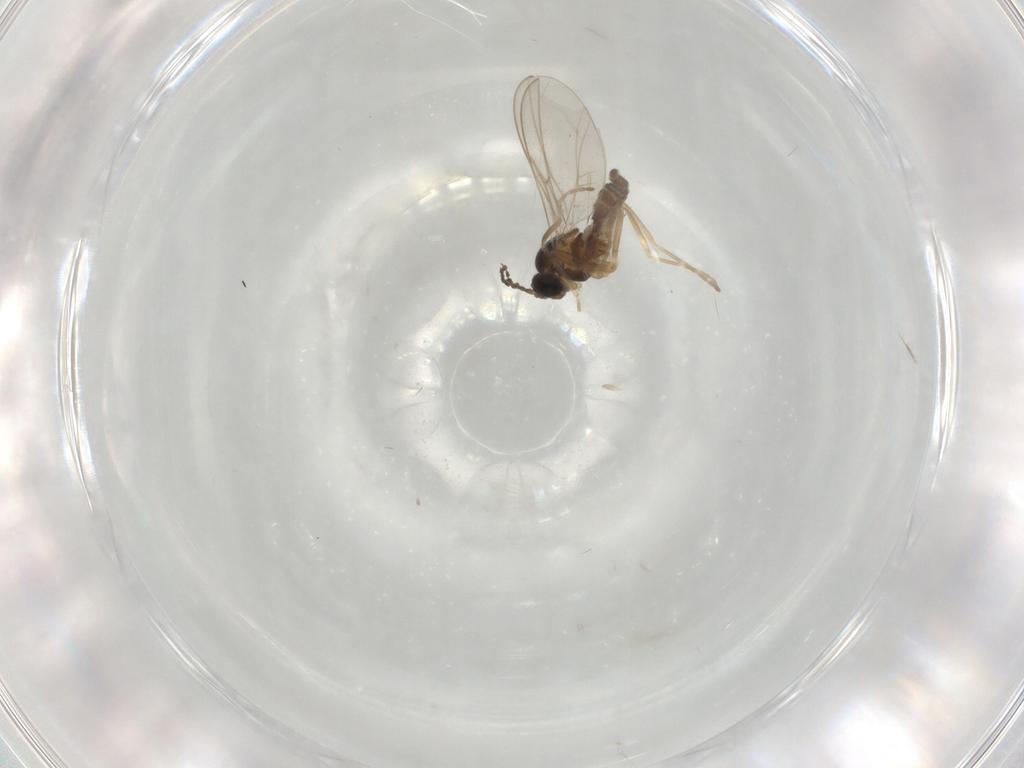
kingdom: Animalia
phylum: Arthropoda
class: Insecta
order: Diptera
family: Cecidomyiidae
